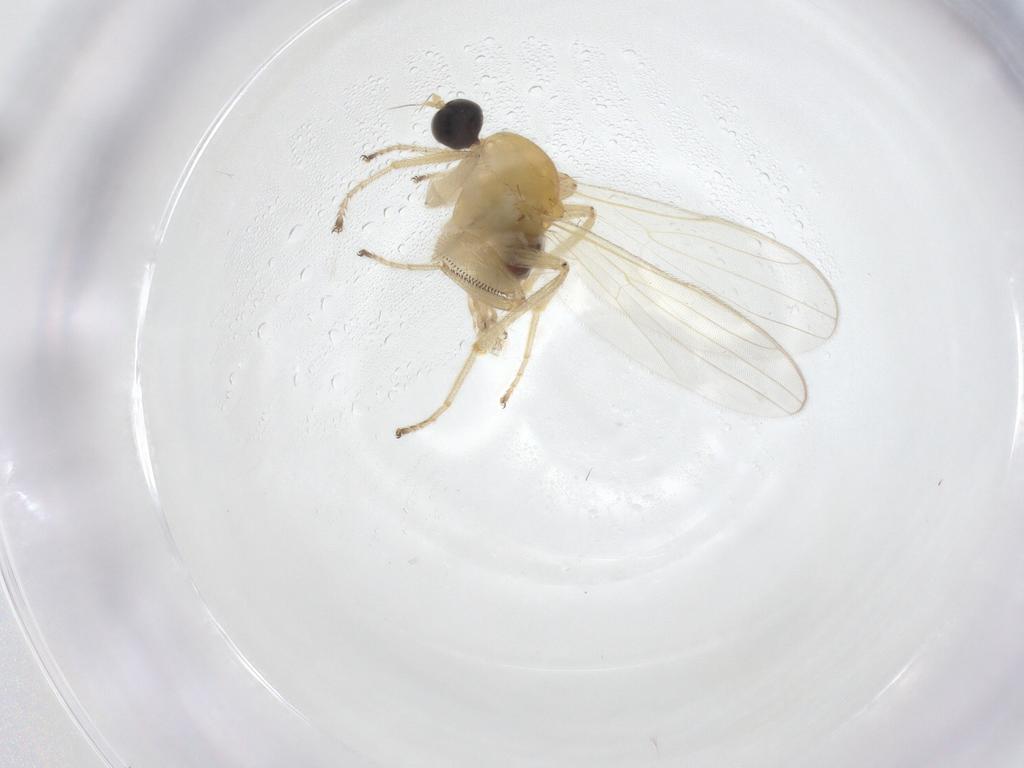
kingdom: Animalia
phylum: Arthropoda
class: Insecta
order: Diptera
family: Hybotidae
